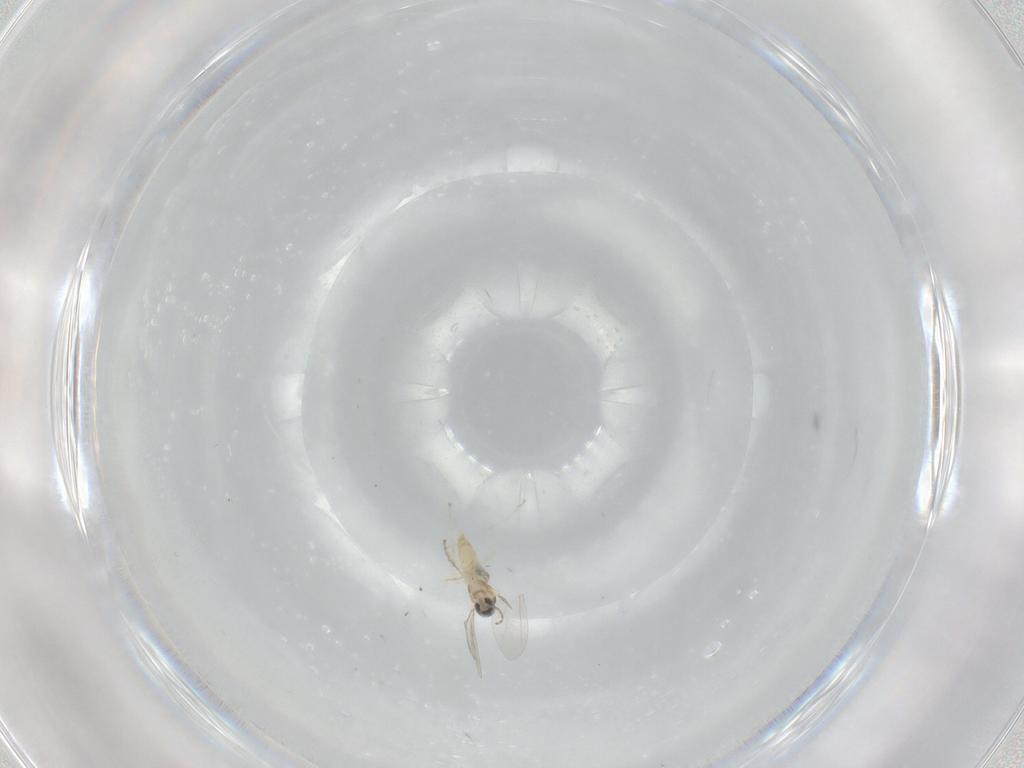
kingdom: Animalia
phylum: Arthropoda
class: Insecta
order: Diptera
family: Cecidomyiidae
